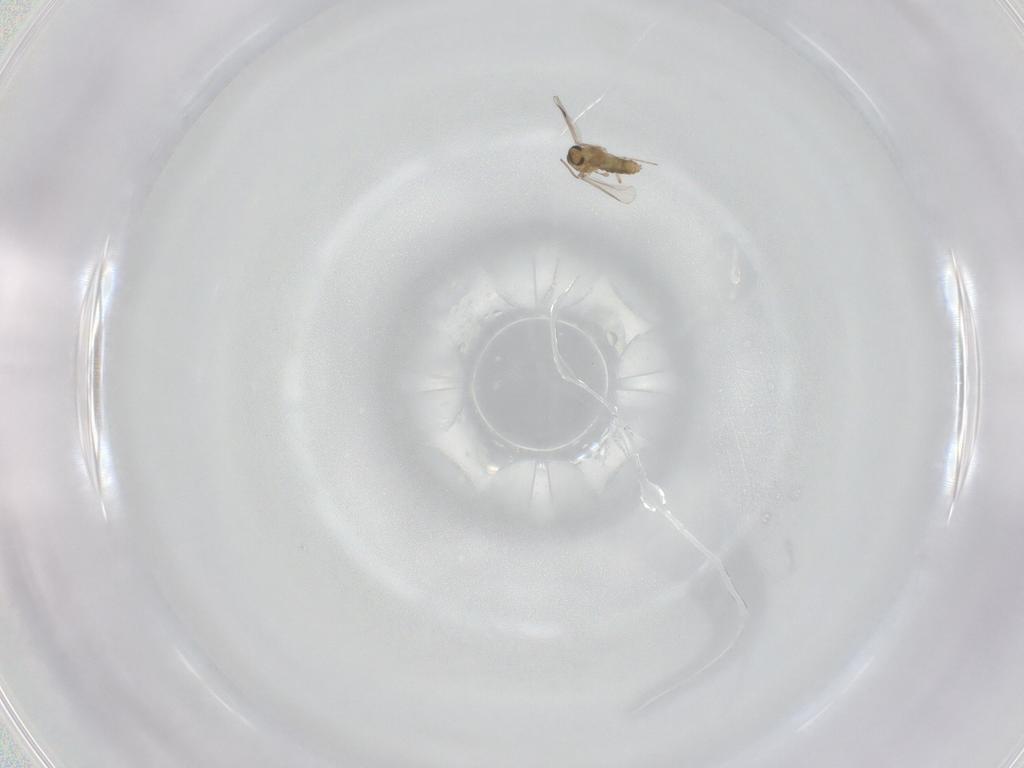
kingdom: Animalia
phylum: Arthropoda
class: Insecta
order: Diptera
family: Chironomidae
